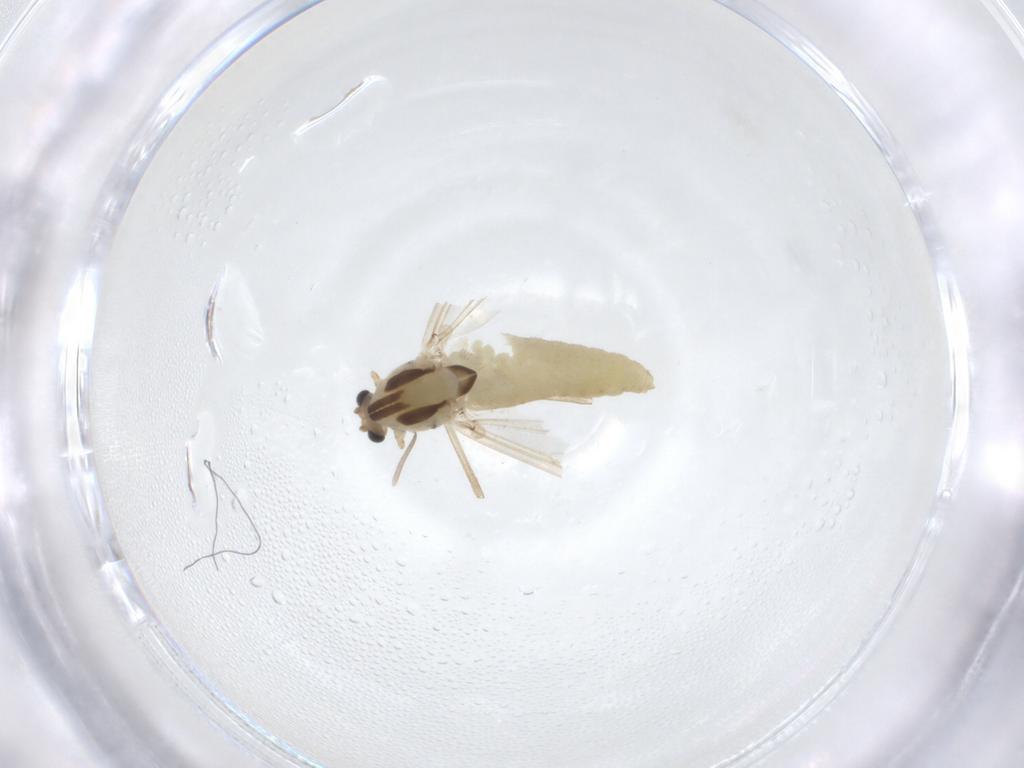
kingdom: Animalia
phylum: Arthropoda
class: Insecta
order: Diptera
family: Chironomidae
